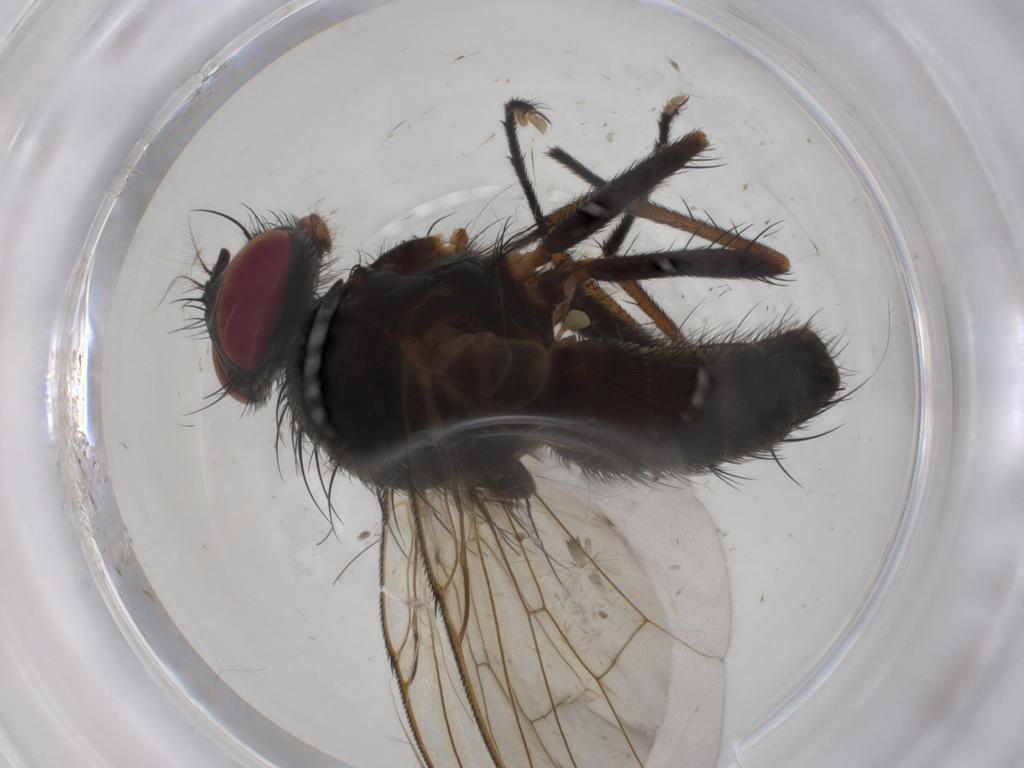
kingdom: Animalia
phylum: Arthropoda
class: Insecta
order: Diptera
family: Muscidae
